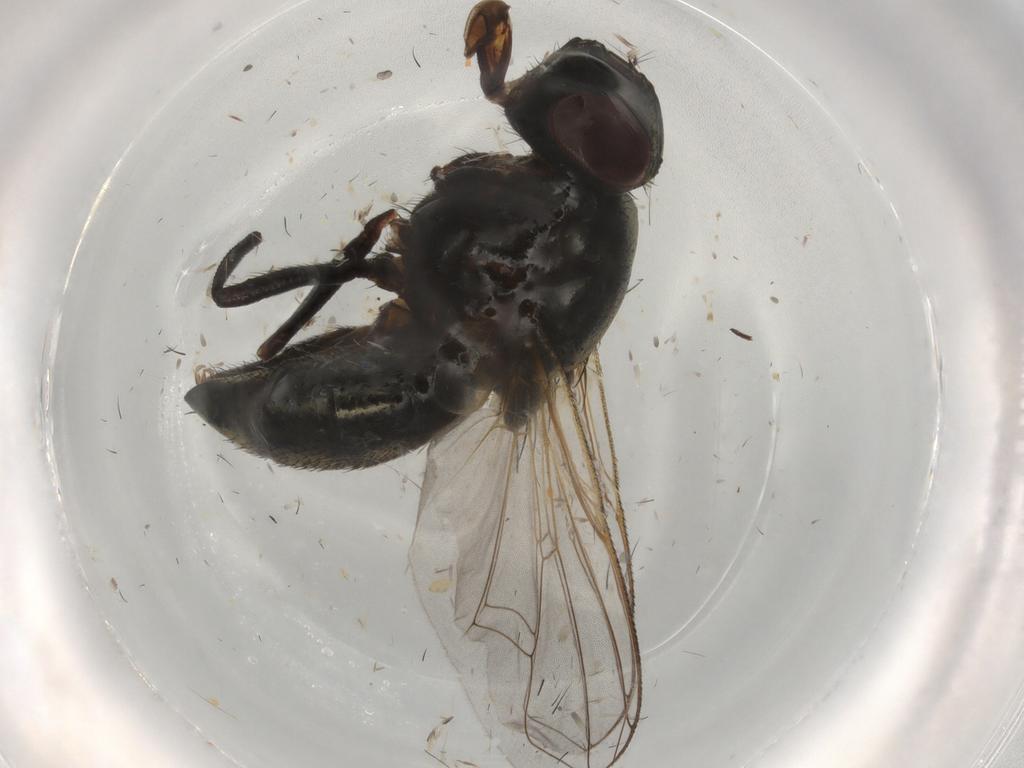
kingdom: Animalia
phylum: Arthropoda
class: Insecta
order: Diptera
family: Muscidae
